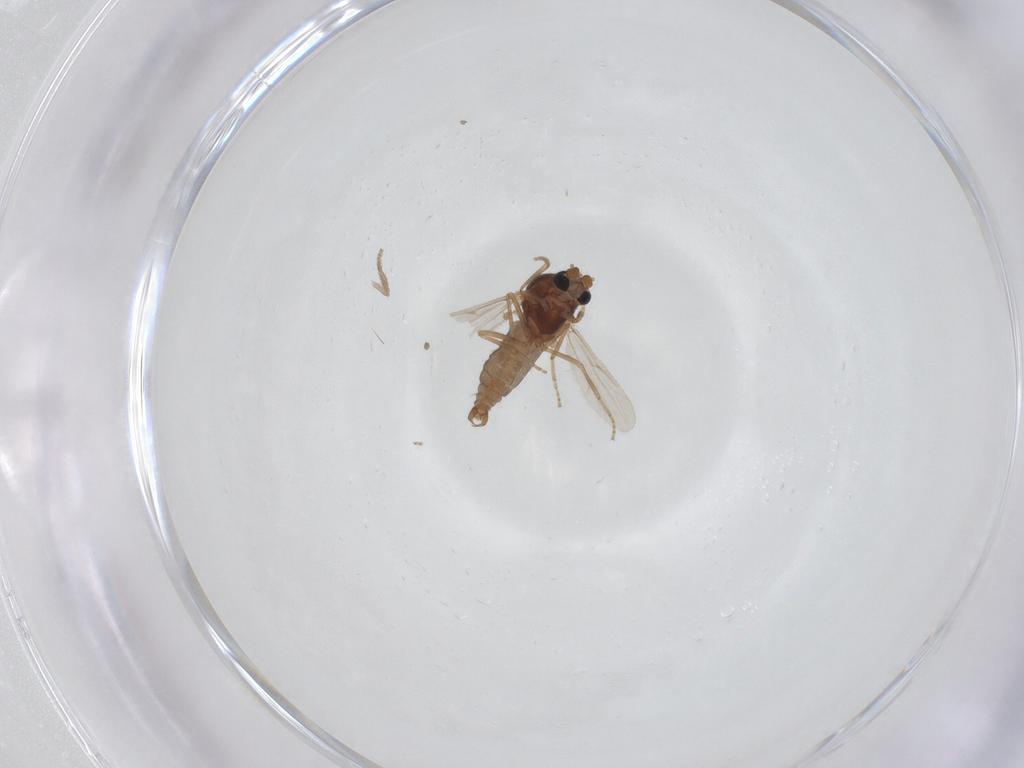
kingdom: Animalia
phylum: Arthropoda
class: Insecta
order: Diptera
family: Ceratopogonidae
